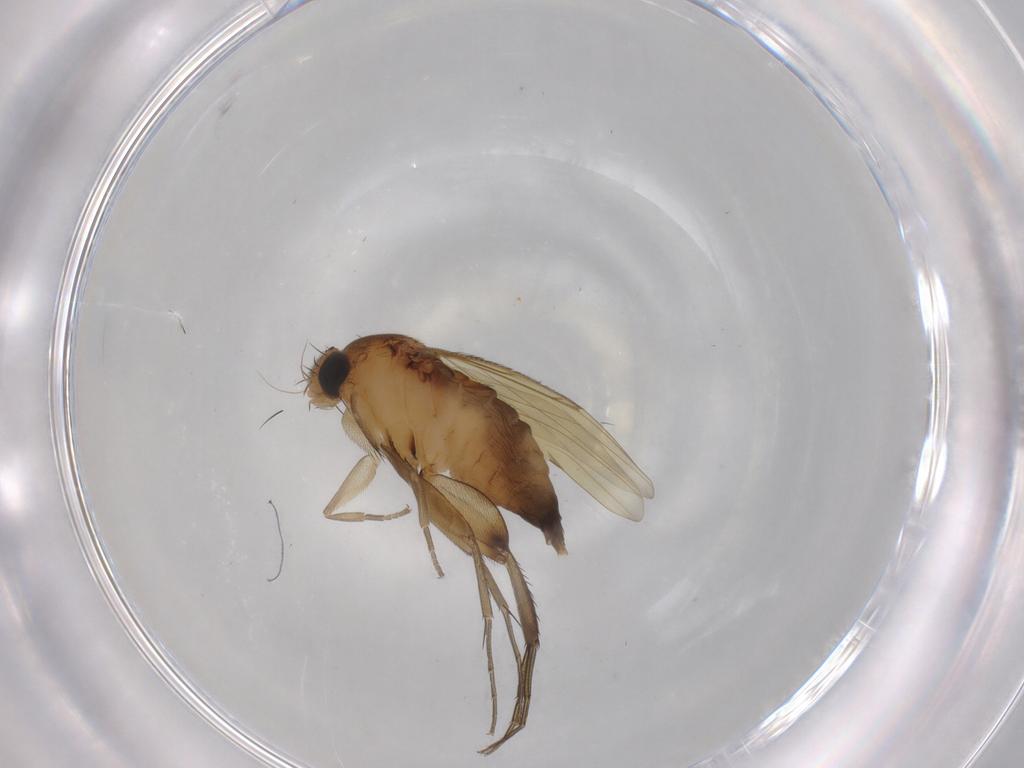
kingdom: Animalia
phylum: Arthropoda
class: Insecta
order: Diptera
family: Phoridae
